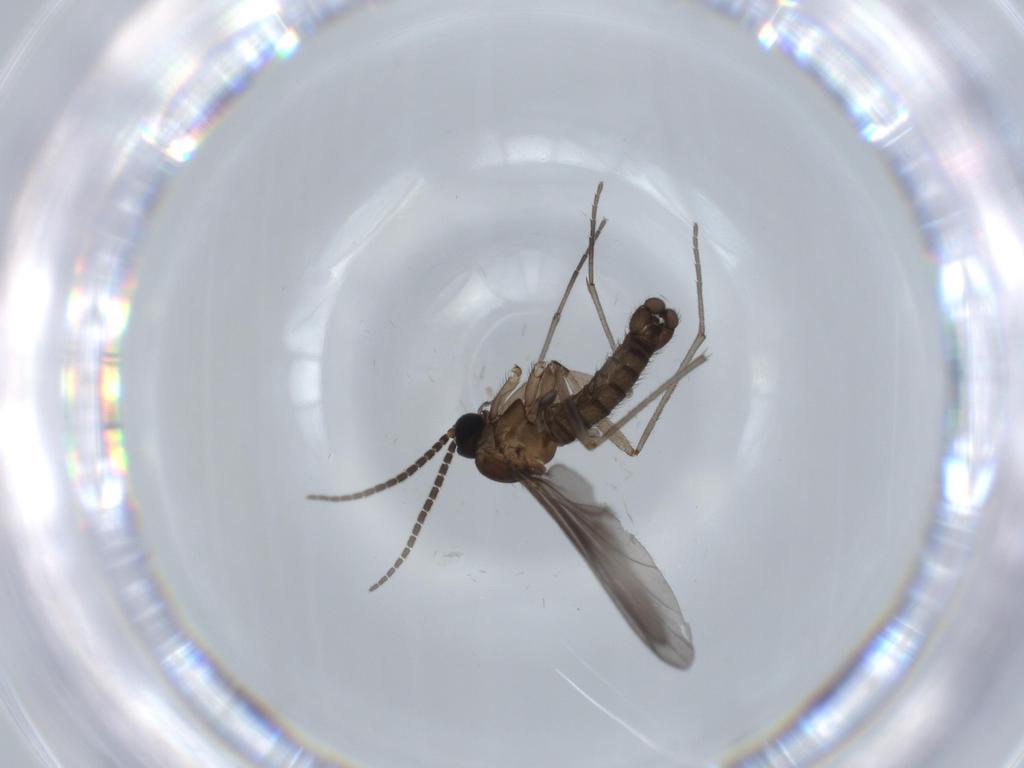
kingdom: Animalia
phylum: Arthropoda
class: Insecta
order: Diptera
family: Sciaridae
